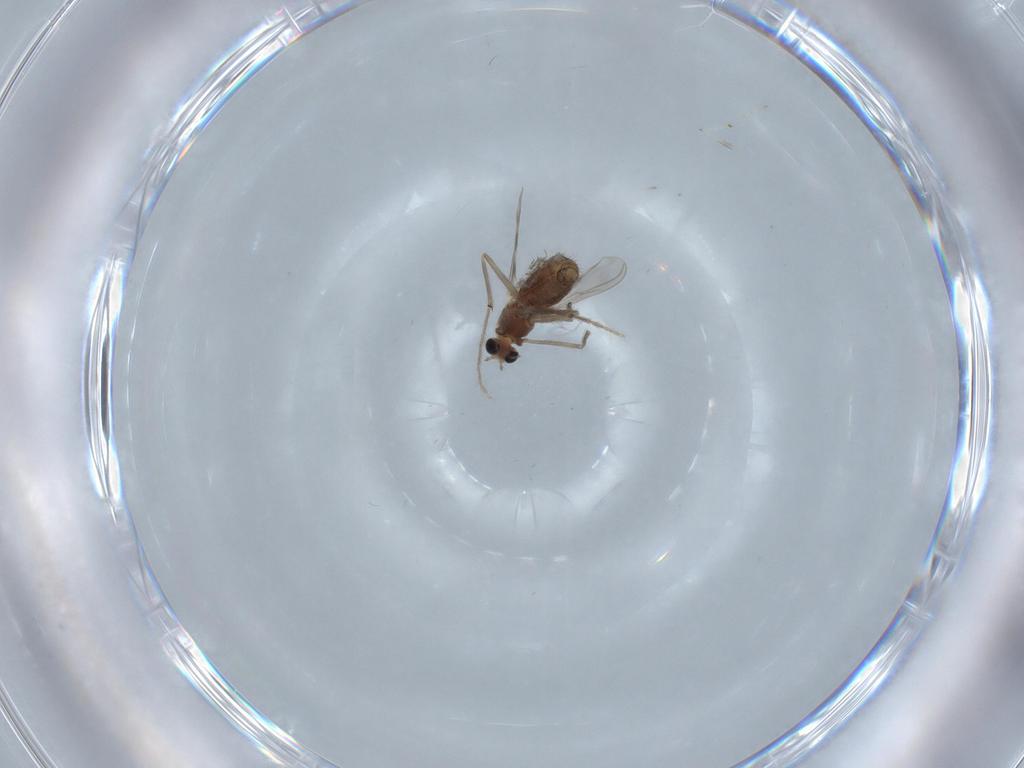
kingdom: Animalia
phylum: Arthropoda
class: Insecta
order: Diptera
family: Chironomidae
